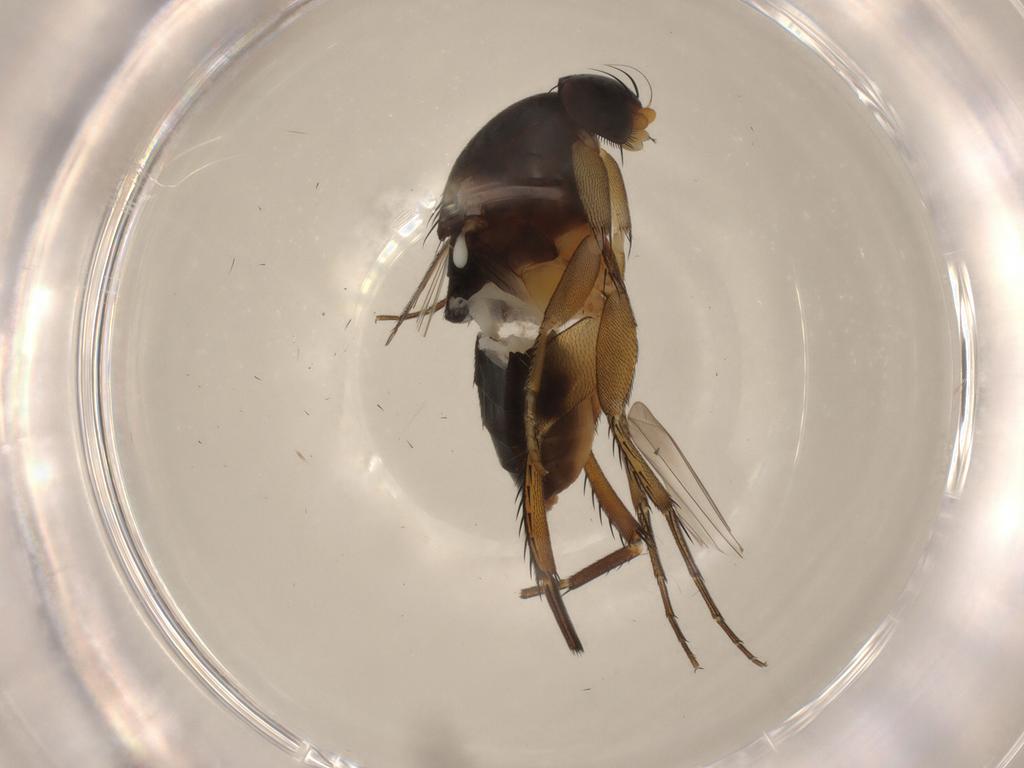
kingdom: Animalia
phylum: Arthropoda
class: Insecta
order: Diptera
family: Phoridae
